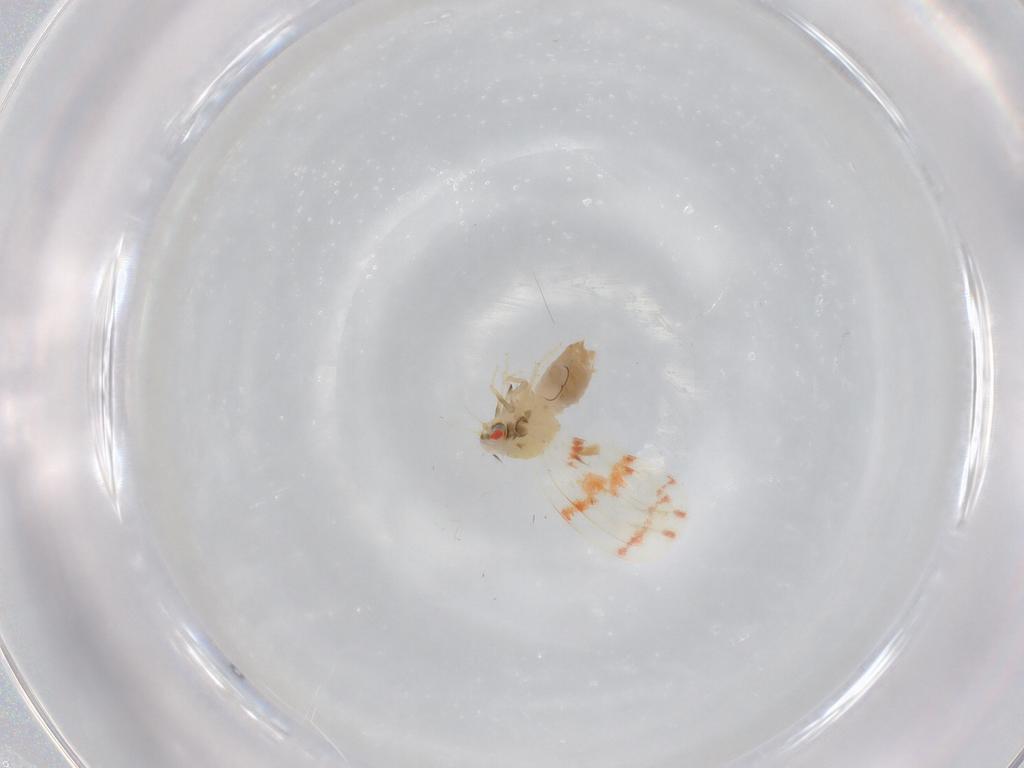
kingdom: Animalia
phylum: Arthropoda
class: Insecta
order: Hemiptera
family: Aleyrodidae
